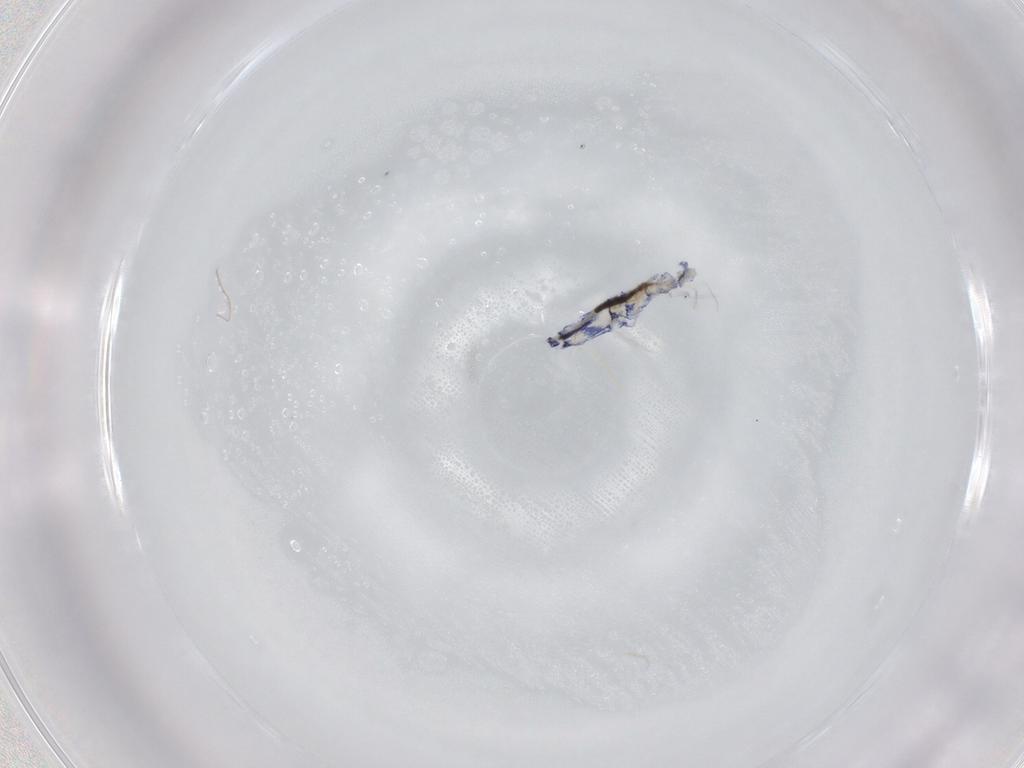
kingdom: Animalia
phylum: Arthropoda
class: Collembola
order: Entomobryomorpha
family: Entomobryidae
